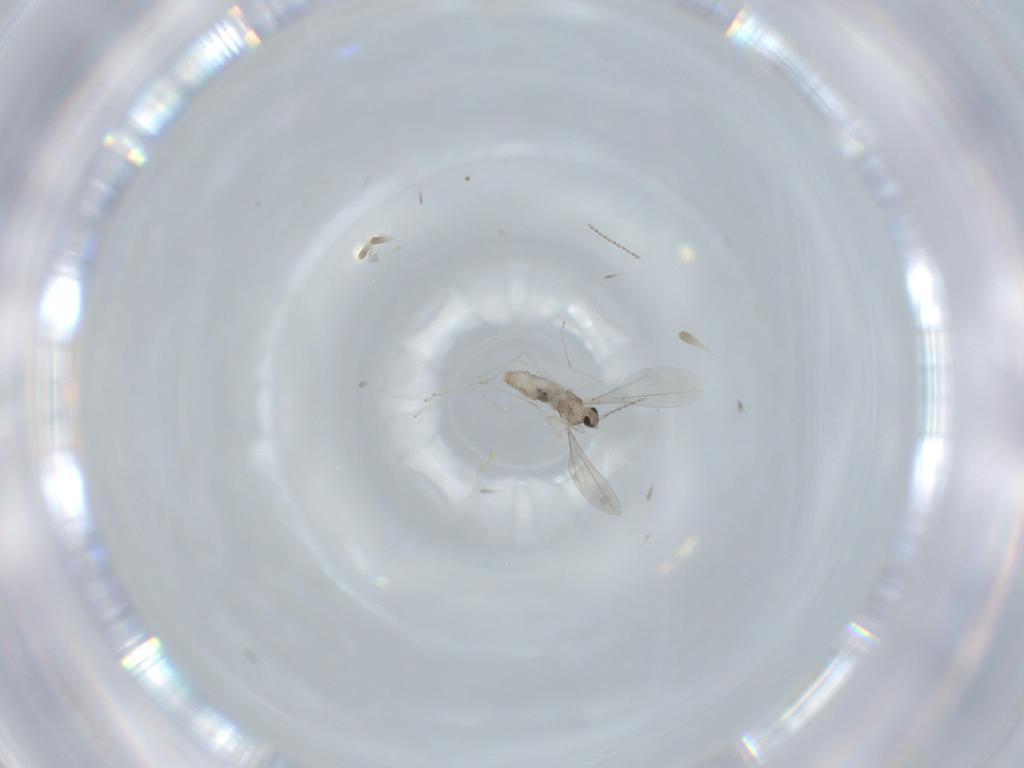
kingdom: Animalia
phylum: Arthropoda
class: Insecta
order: Diptera
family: Cecidomyiidae
